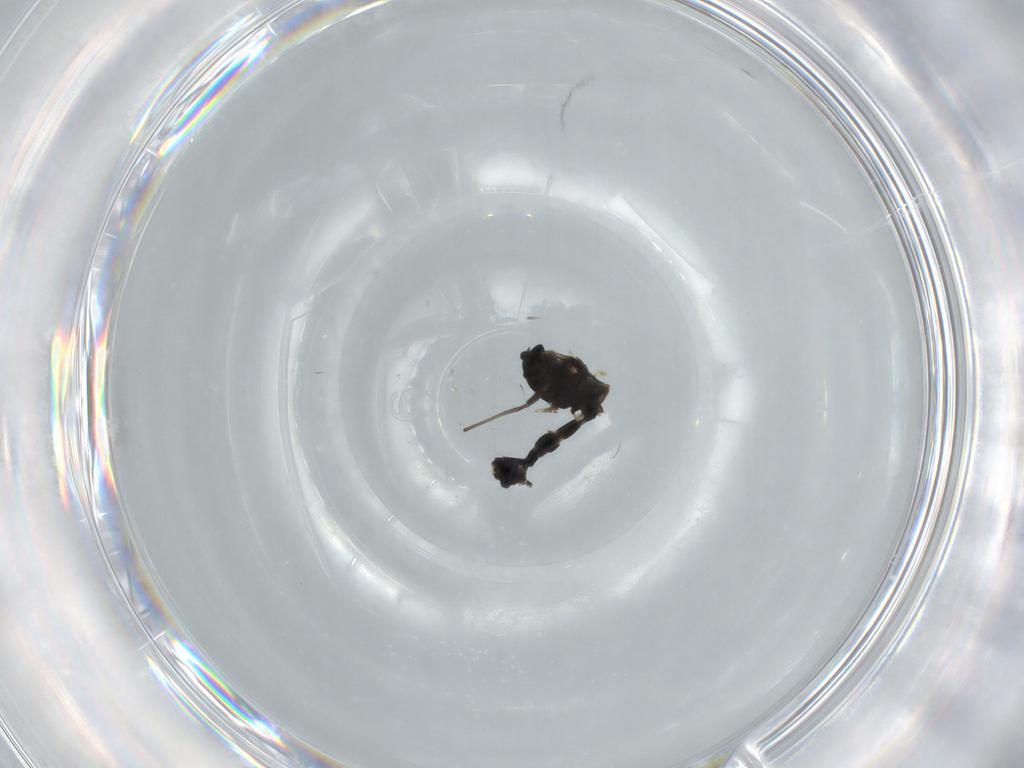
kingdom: Animalia
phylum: Arthropoda
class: Insecta
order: Diptera
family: Chironomidae
